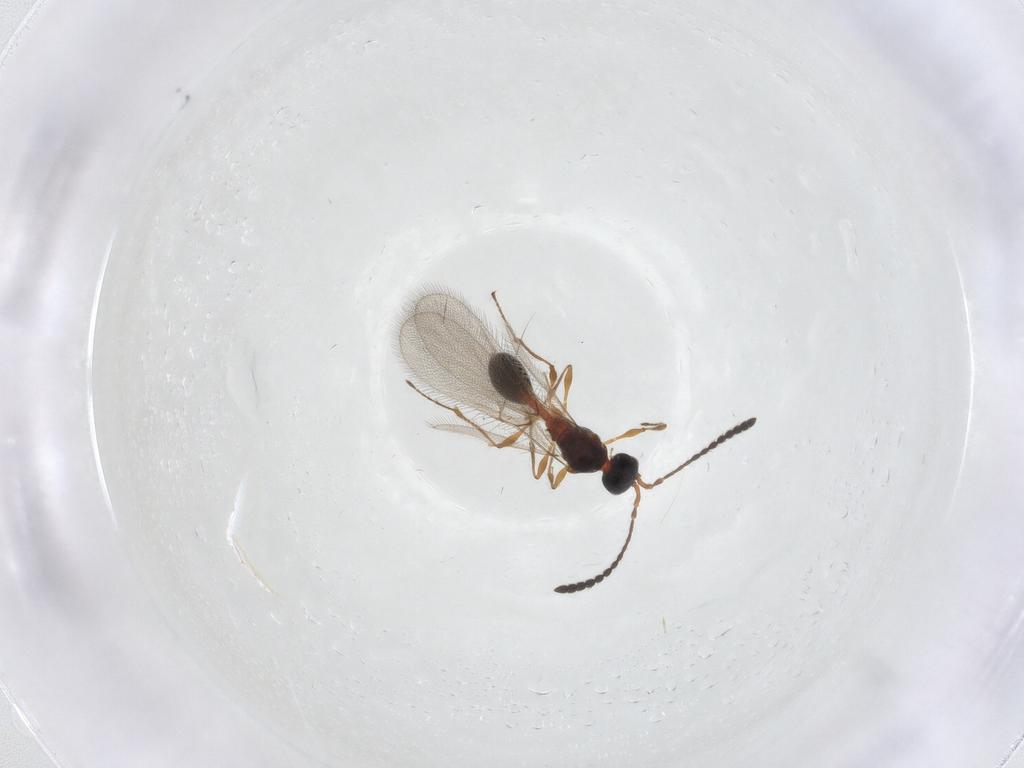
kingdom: Animalia
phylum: Arthropoda
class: Insecta
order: Hymenoptera
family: Diapriidae
